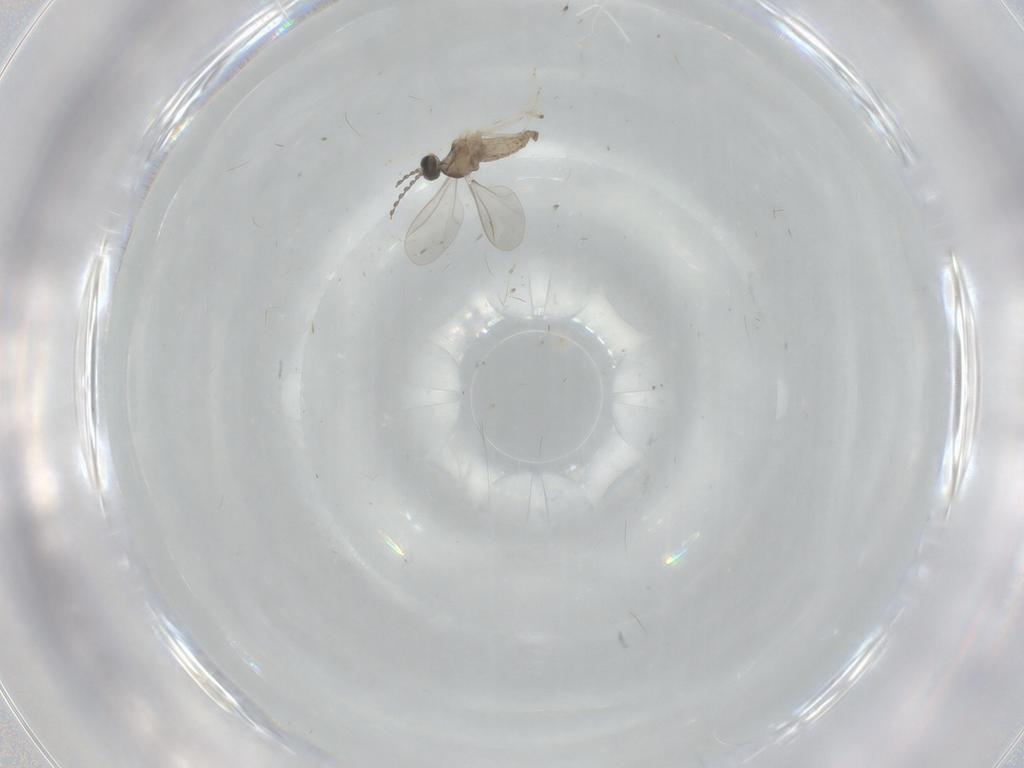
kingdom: Animalia
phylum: Arthropoda
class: Insecta
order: Diptera
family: Cecidomyiidae
